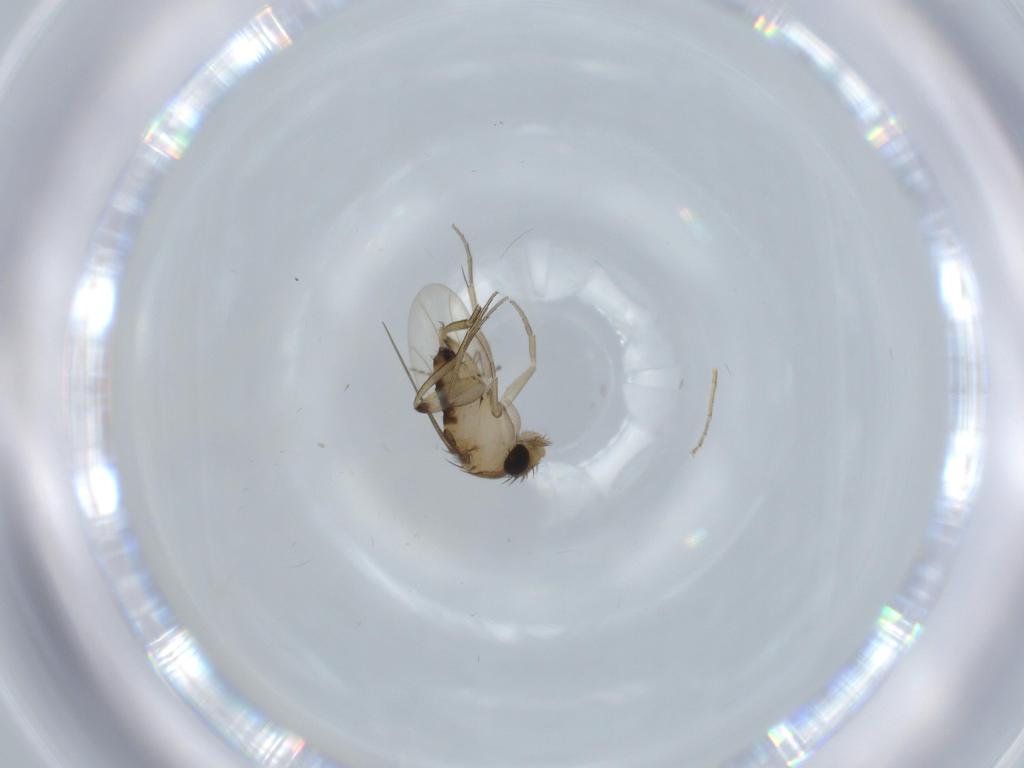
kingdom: Animalia
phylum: Arthropoda
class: Insecta
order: Diptera
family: Phoridae
